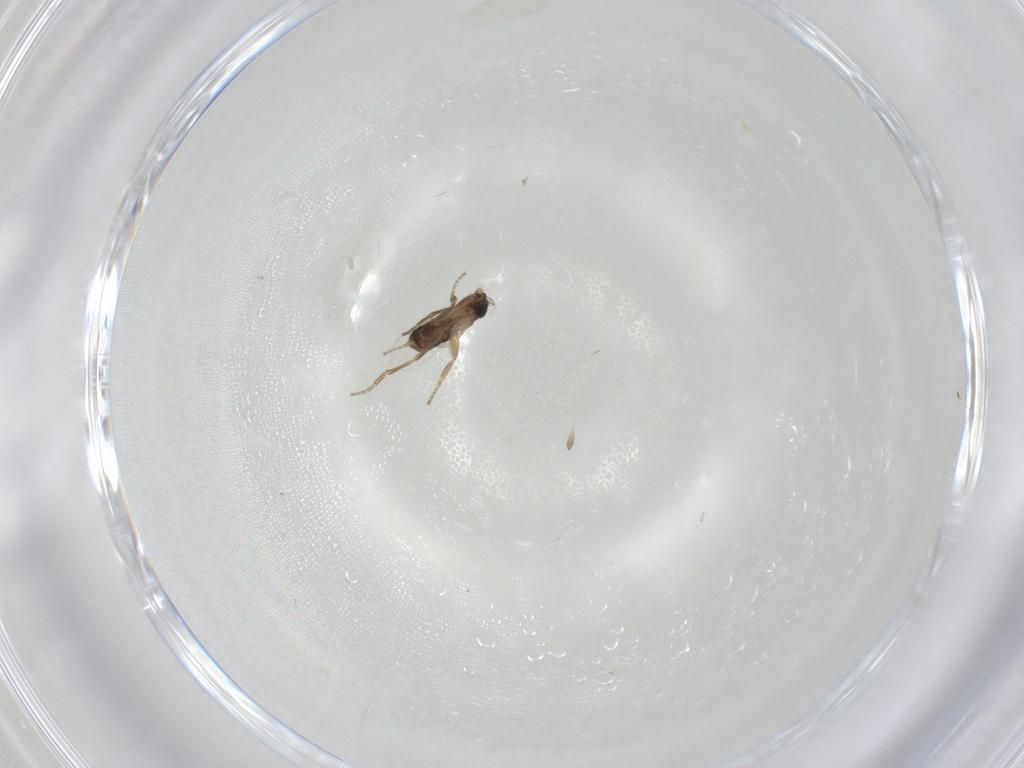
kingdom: Animalia
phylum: Arthropoda
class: Insecta
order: Diptera
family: Phoridae
